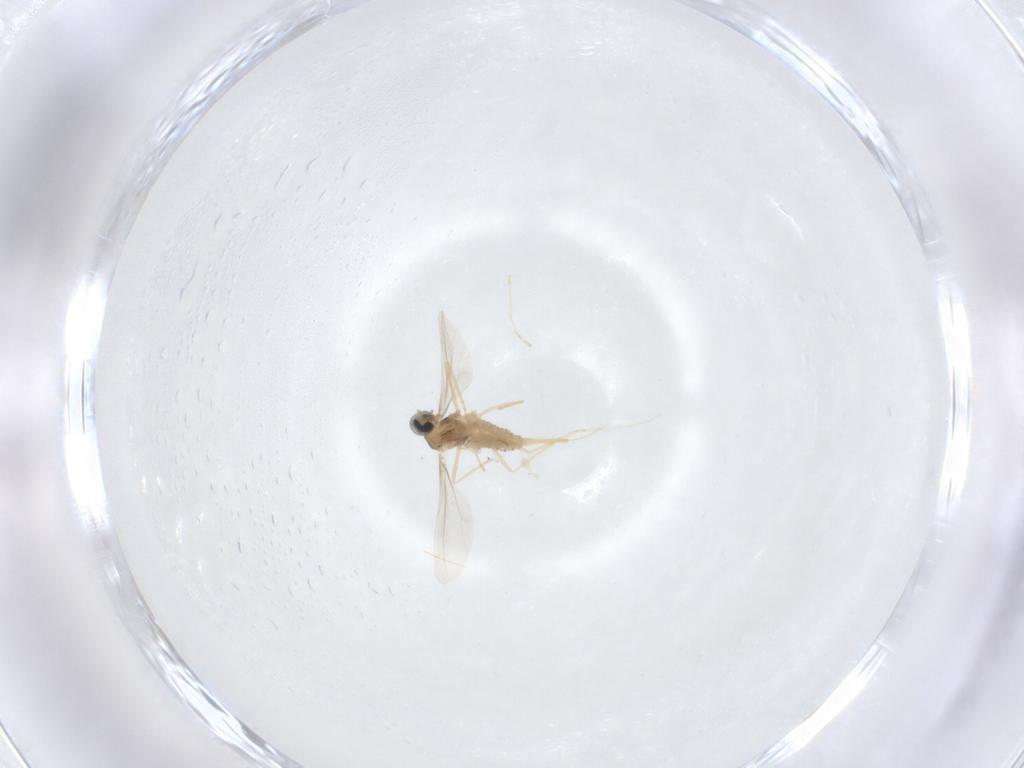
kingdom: Animalia
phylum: Arthropoda
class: Insecta
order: Diptera
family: Cecidomyiidae
